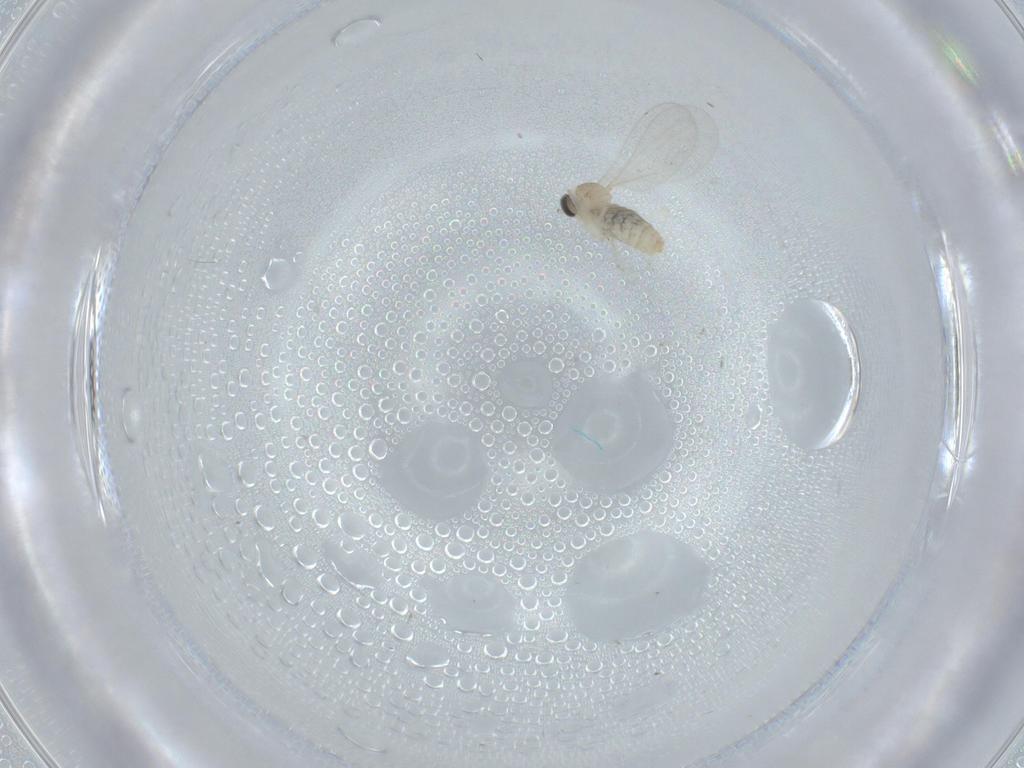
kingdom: Animalia
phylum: Arthropoda
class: Insecta
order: Diptera
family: Cecidomyiidae
